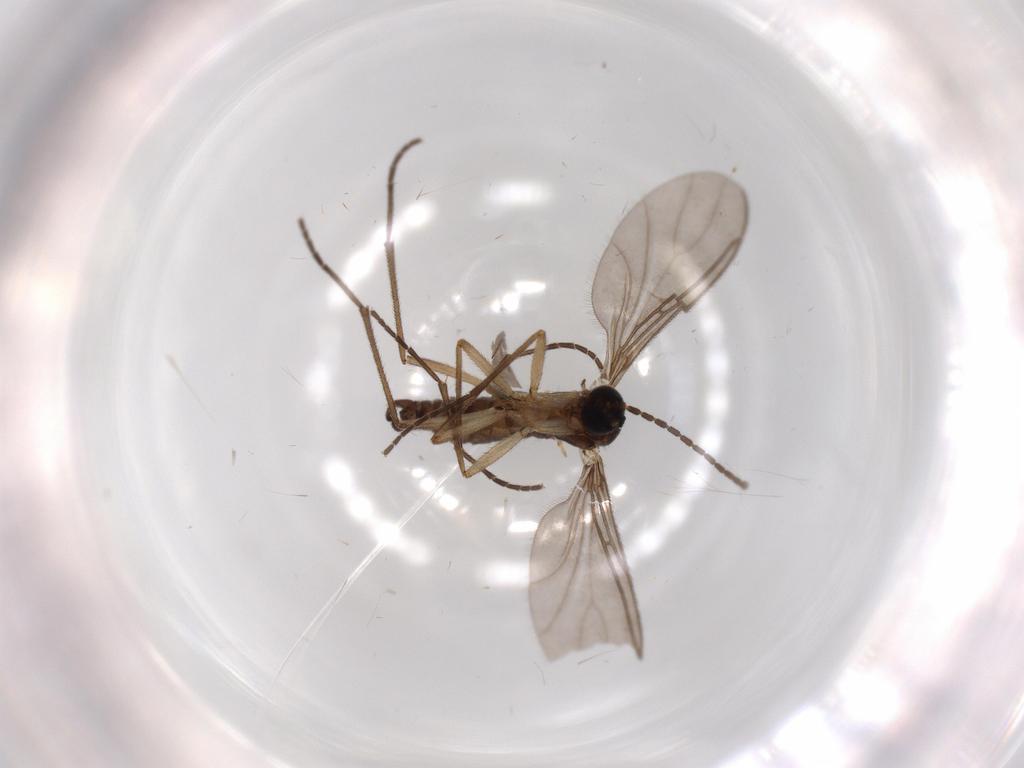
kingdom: Animalia
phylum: Arthropoda
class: Insecta
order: Diptera
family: Sciaridae
